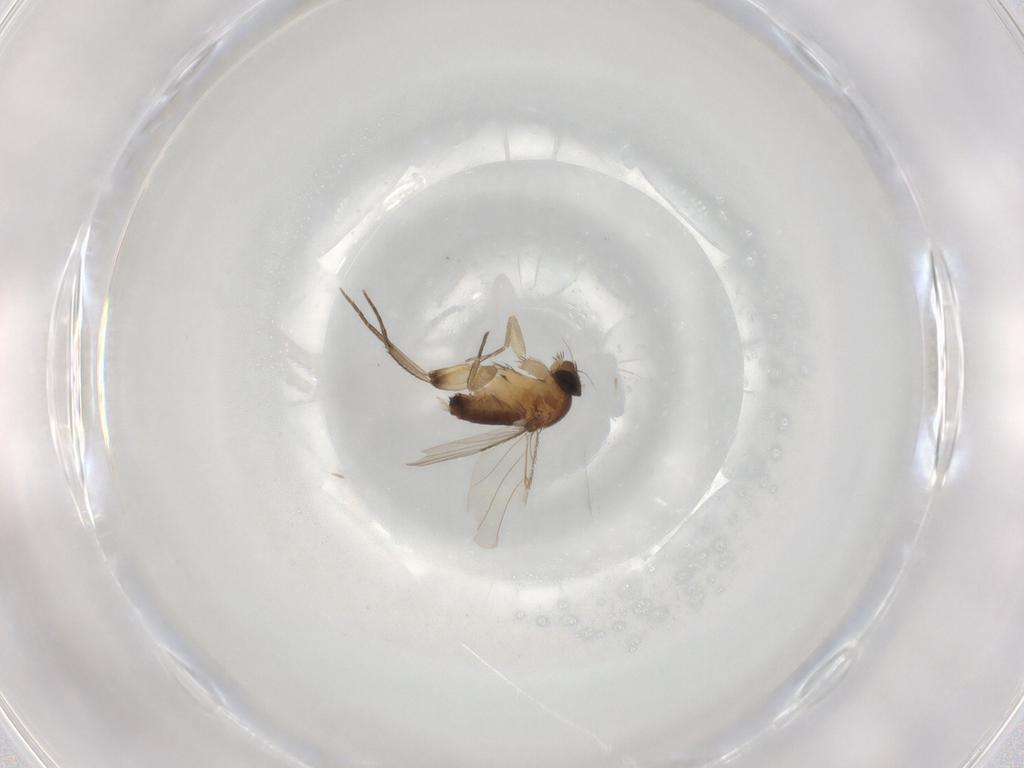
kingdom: Animalia
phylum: Arthropoda
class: Insecta
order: Diptera
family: Phoridae
